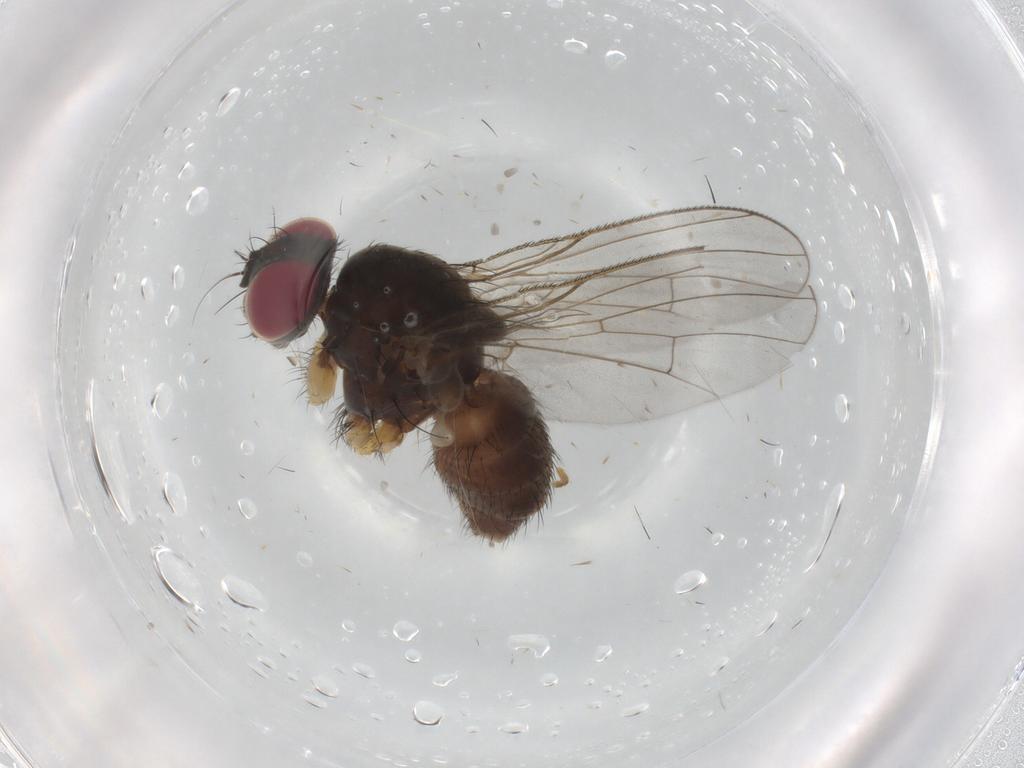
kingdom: Animalia
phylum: Arthropoda
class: Insecta
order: Diptera
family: Muscidae
